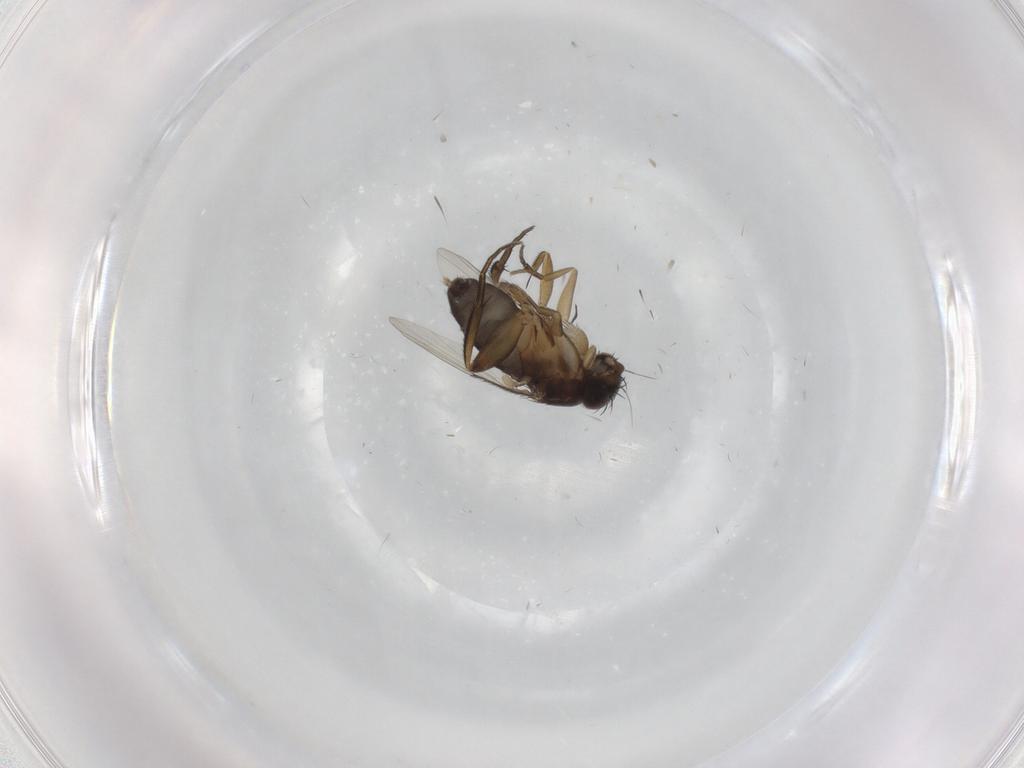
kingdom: Animalia
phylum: Arthropoda
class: Insecta
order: Diptera
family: Phoridae
